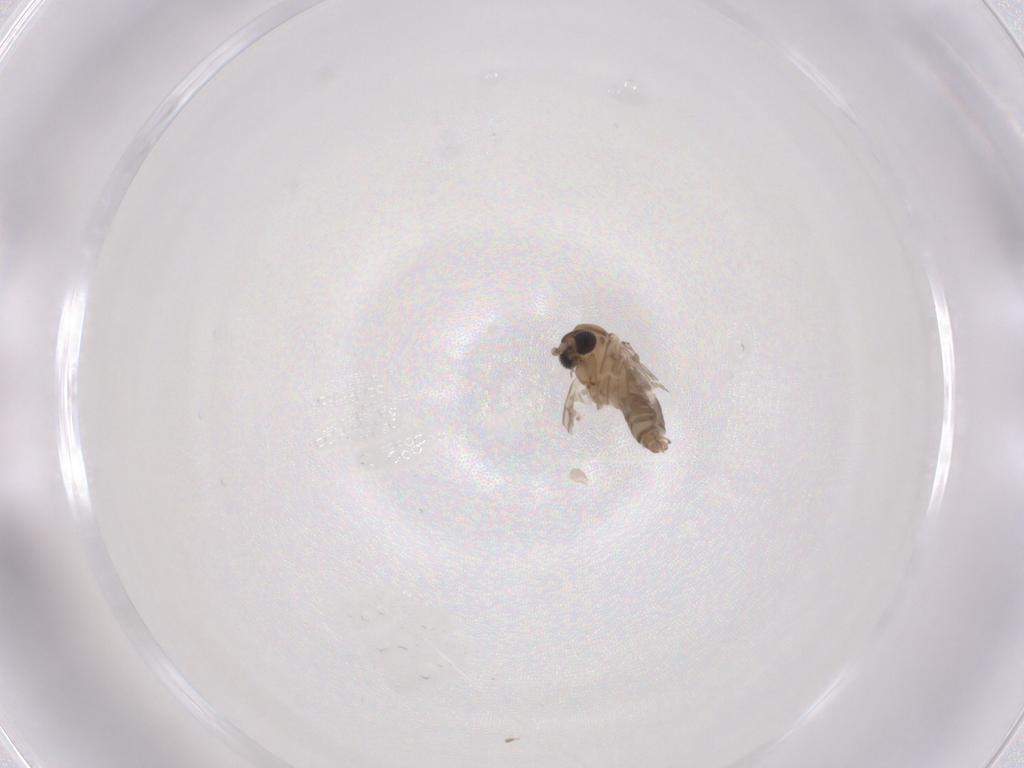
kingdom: Animalia
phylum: Arthropoda
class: Insecta
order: Diptera
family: Psychodidae
